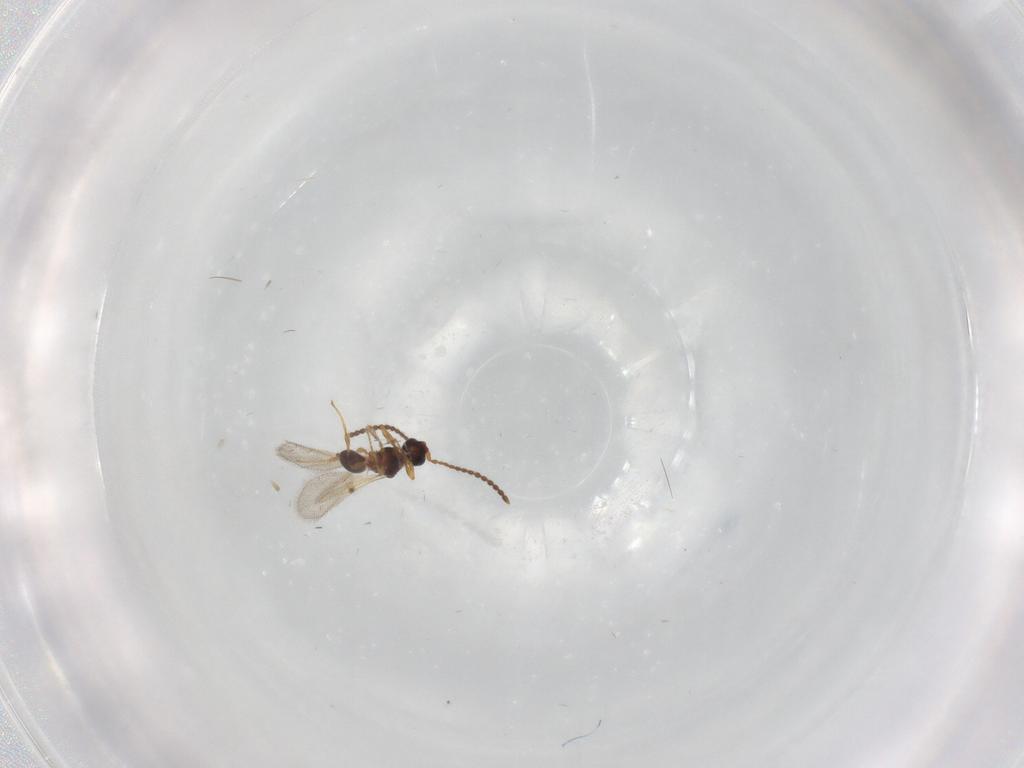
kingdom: Animalia
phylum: Arthropoda
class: Insecta
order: Diptera
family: Cecidomyiidae
